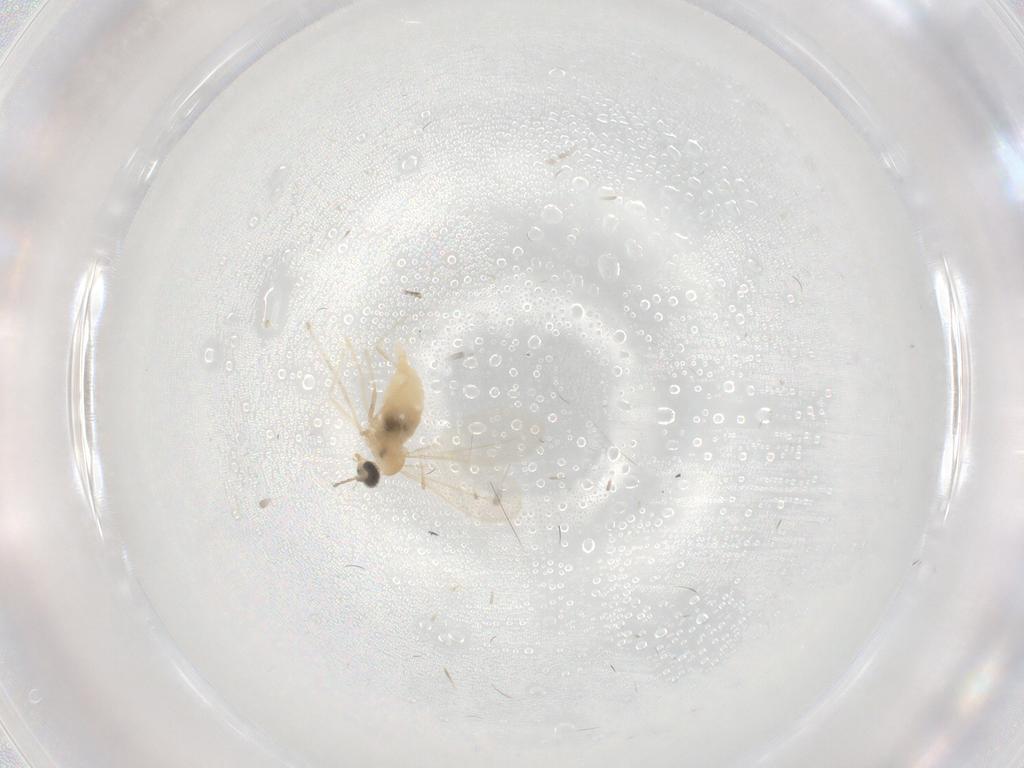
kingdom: Animalia
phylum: Arthropoda
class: Insecta
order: Diptera
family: Cecidomyiidae
